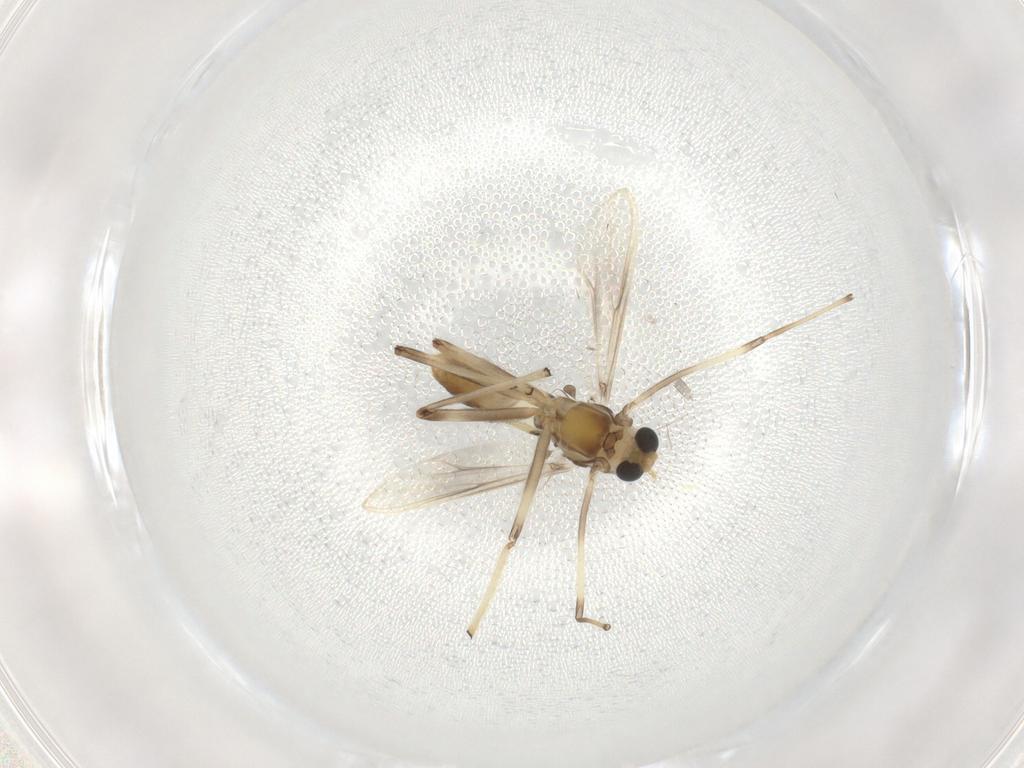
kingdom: Animalia
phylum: Arthropoda
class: Insecta
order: Diptera
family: Chironomidae
